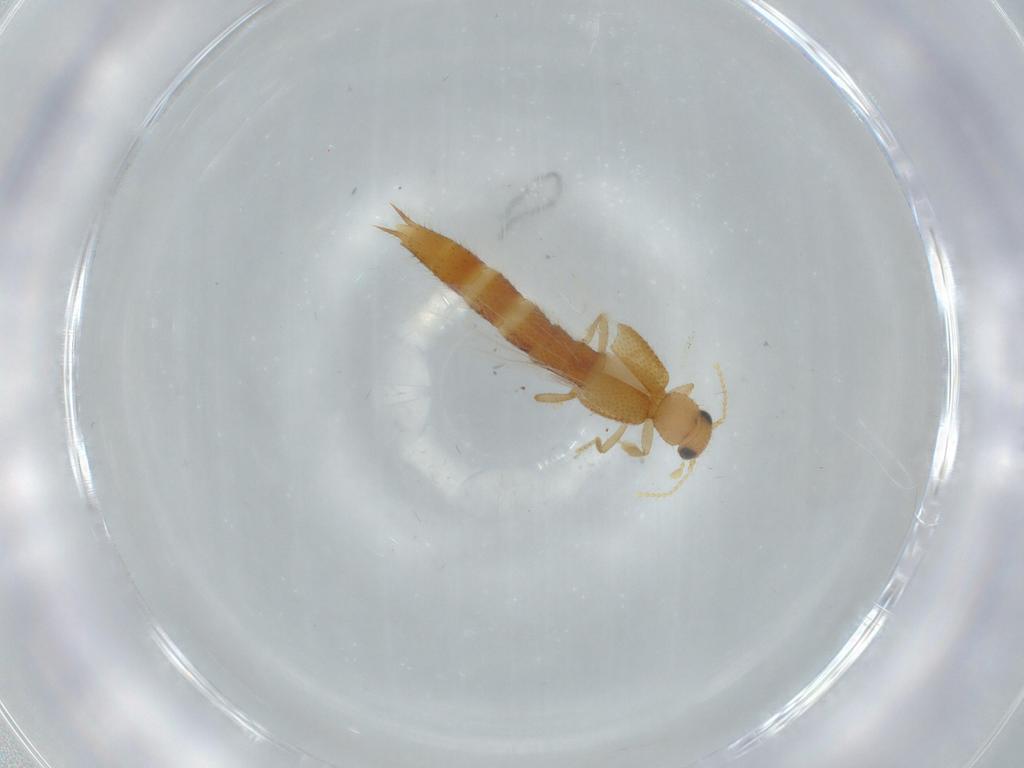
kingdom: Animalia
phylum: Arthropoda
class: Insecta
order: Coleoptera
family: Staphylinidae
